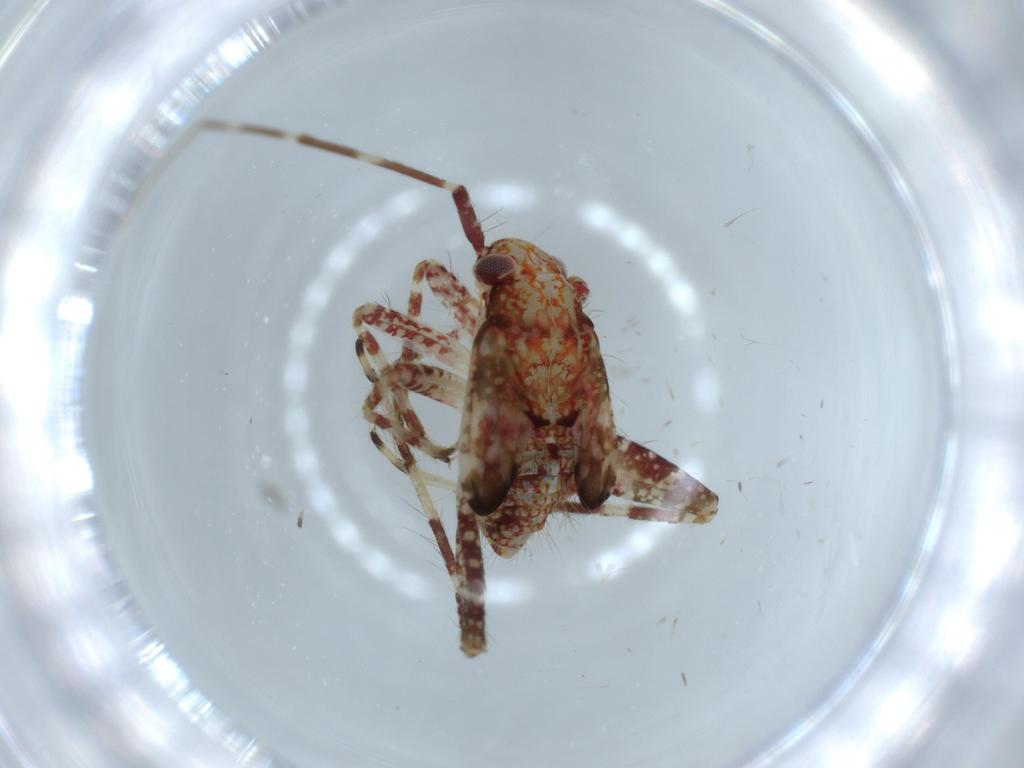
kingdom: Animalia
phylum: Arthropoda
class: Insecta
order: Hemiptera
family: Miridae
